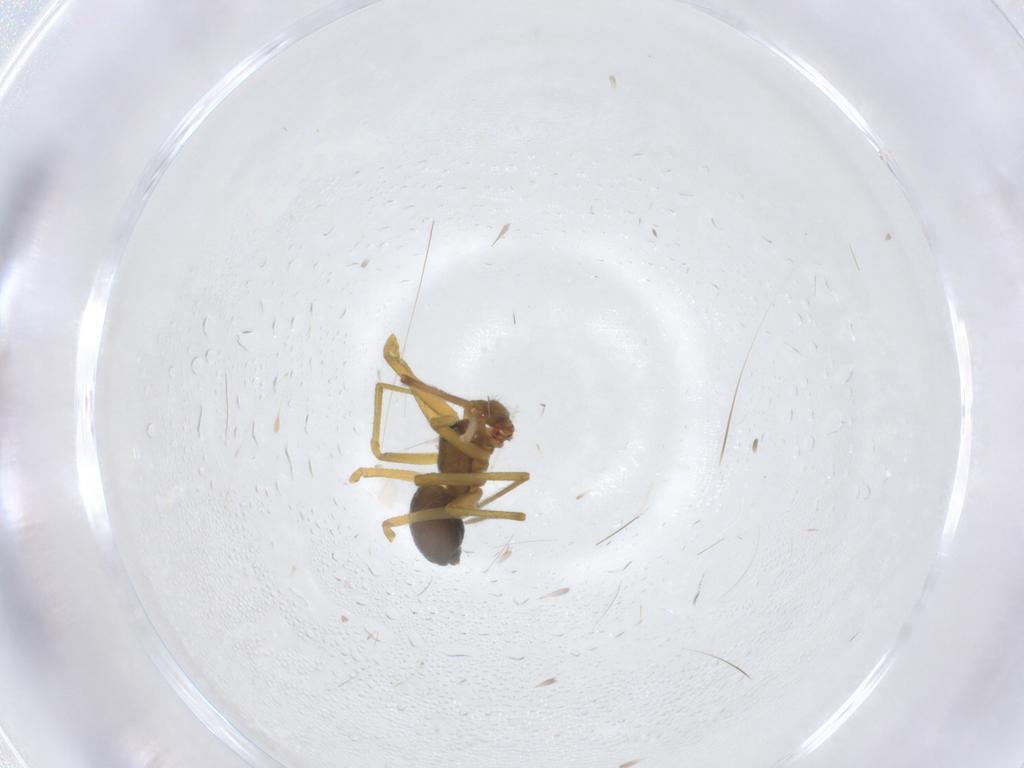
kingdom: Animalia
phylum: Arthropoda
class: Arachnida
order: Araneae
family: Linyphiidae
